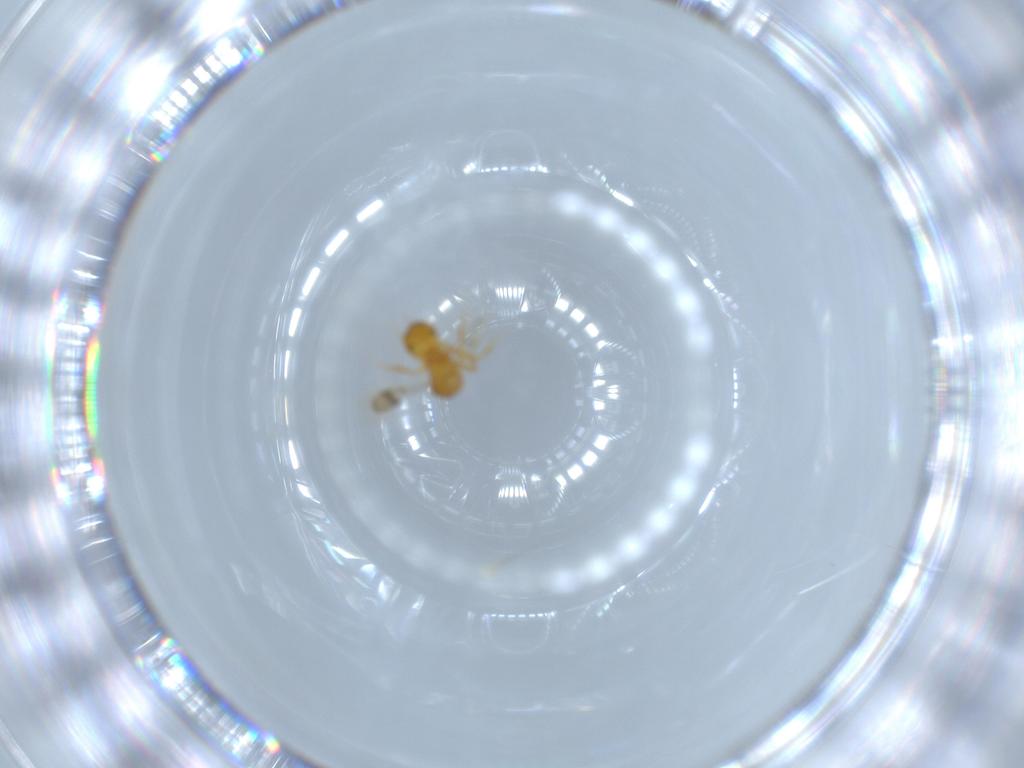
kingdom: Animalia
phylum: Arthropoda
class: Insecta
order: Hymenoptera
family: Scelionidae
